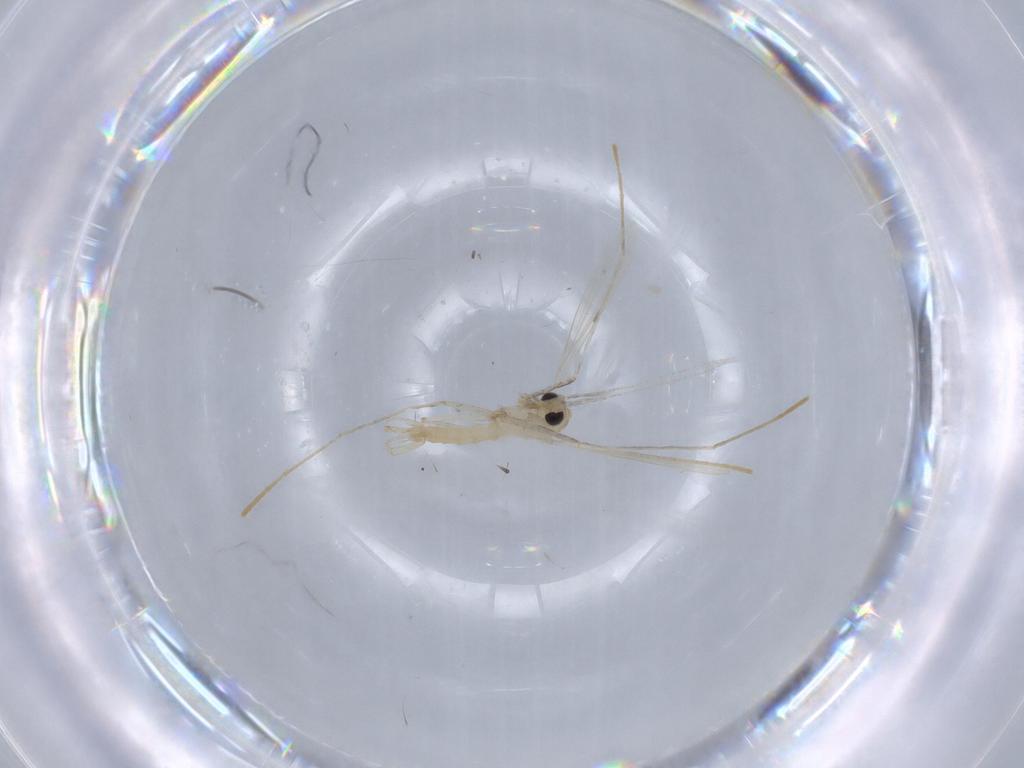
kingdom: Animalia
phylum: Arthropoda
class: Insecta
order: Diptera
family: Psychodidae
